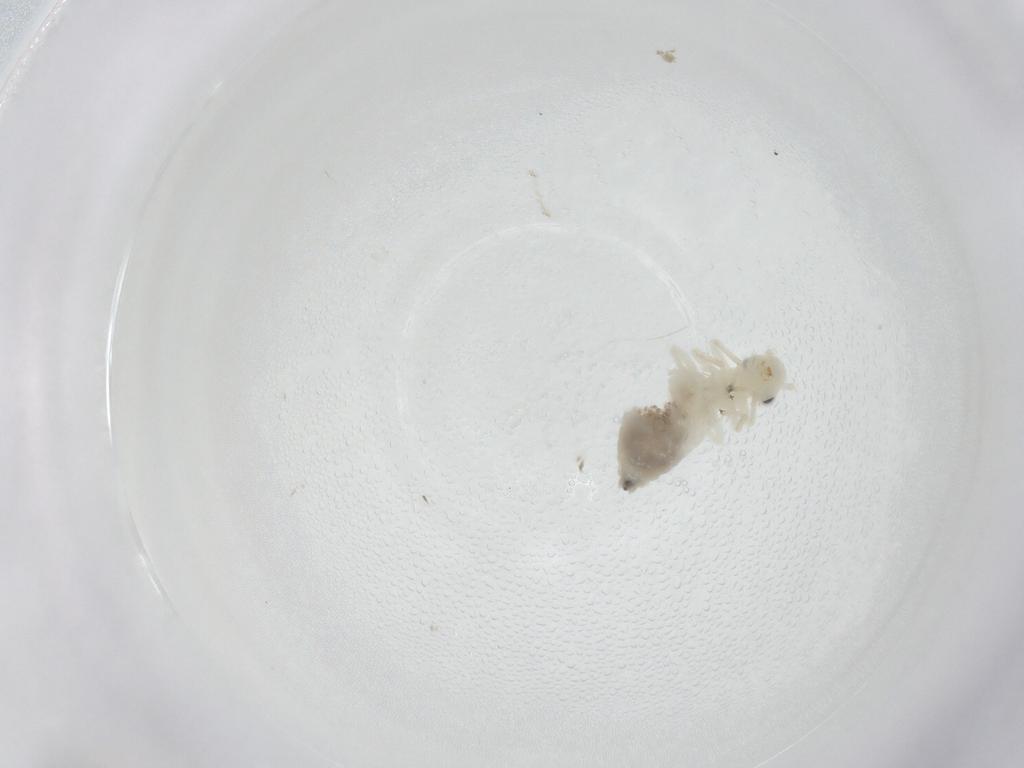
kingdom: Animalia
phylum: Arthropoda
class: Insecta
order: Psocodea
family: Caeciliusidae
